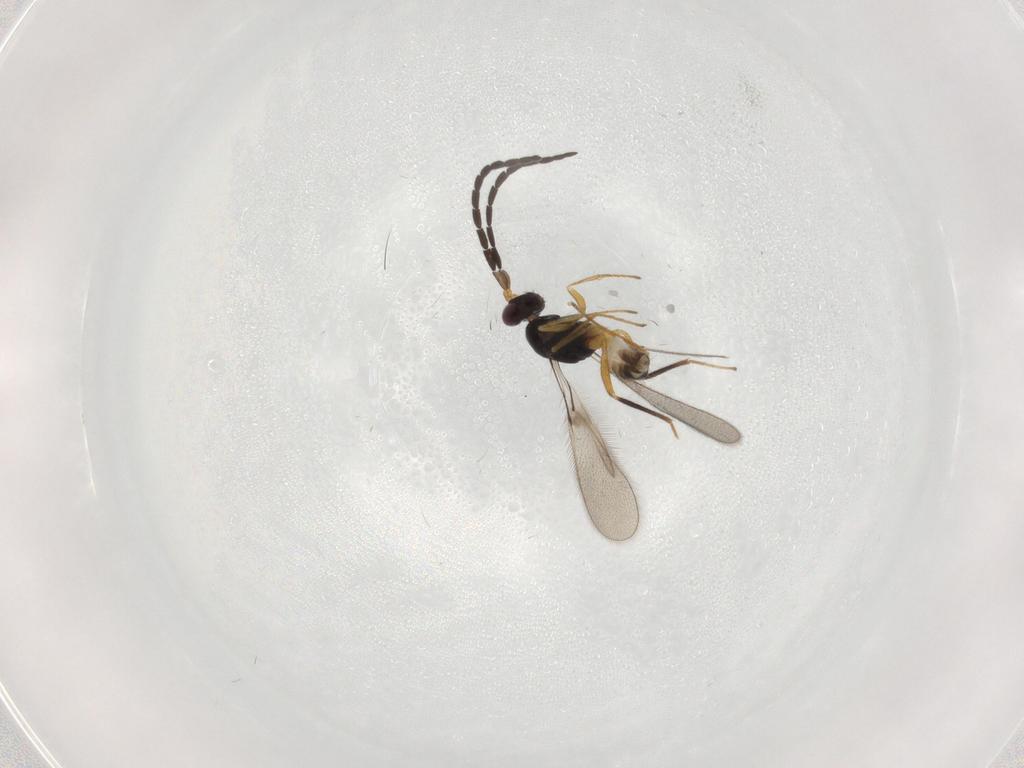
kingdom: Animalia
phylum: Arthropoda
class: Insecta
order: Hymenoptera
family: Mymaridae
